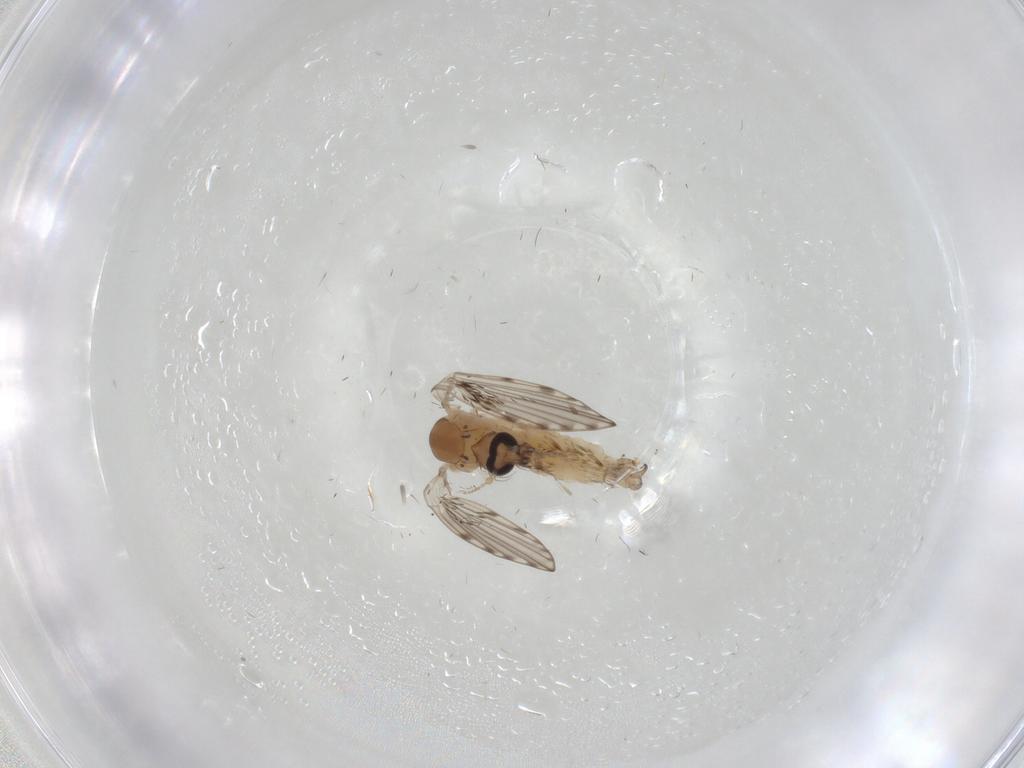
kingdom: Animalia
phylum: Arthropoda
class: Insecta
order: Diptera
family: Psychodidae
